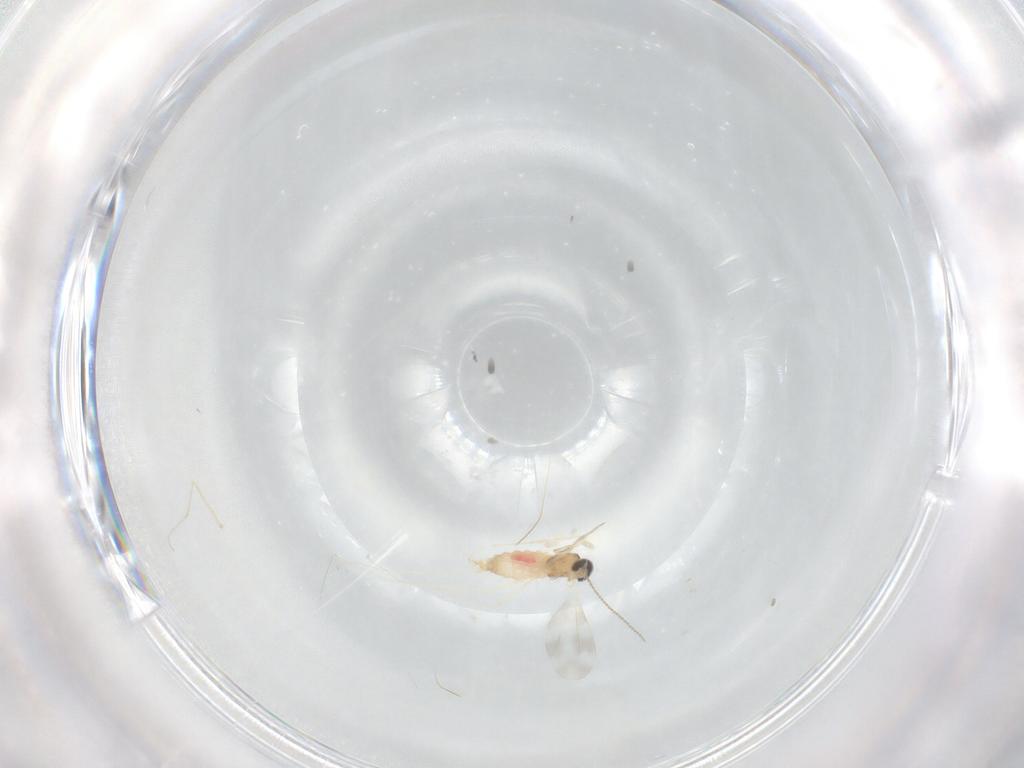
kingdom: Animalia
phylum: Arthropoda
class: Insecta
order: Diptera
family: Cecidomyiidae
